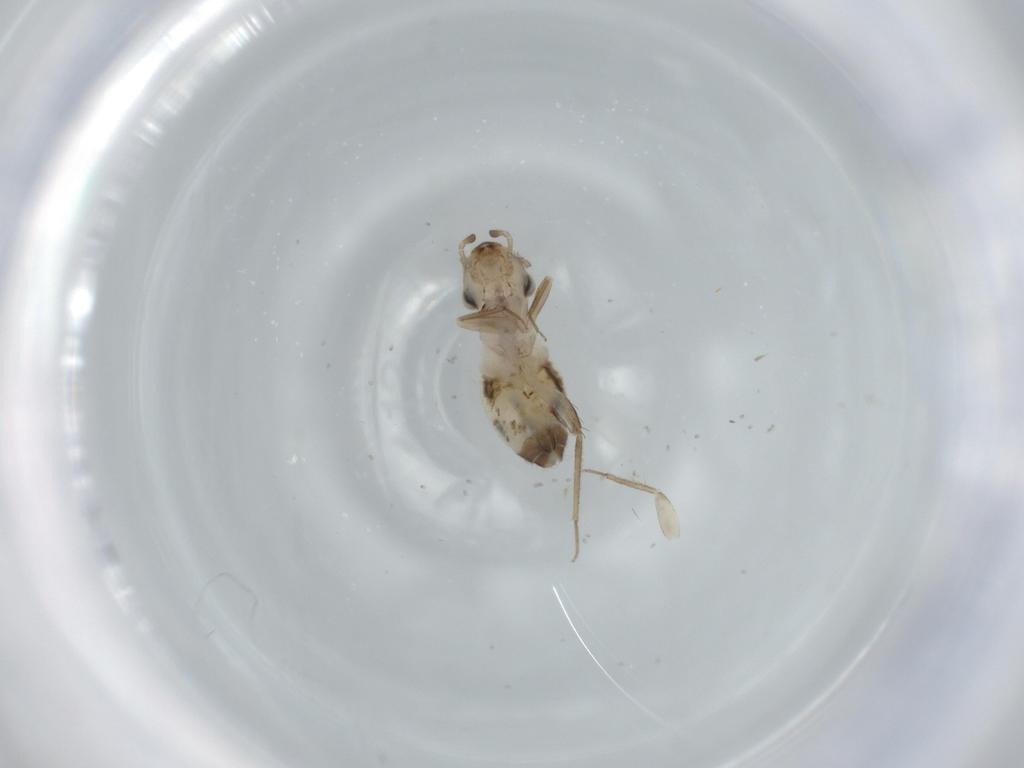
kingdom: Animalia
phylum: Arthropoda
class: Insecta
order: Psocodea
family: Lepidopsocidae
